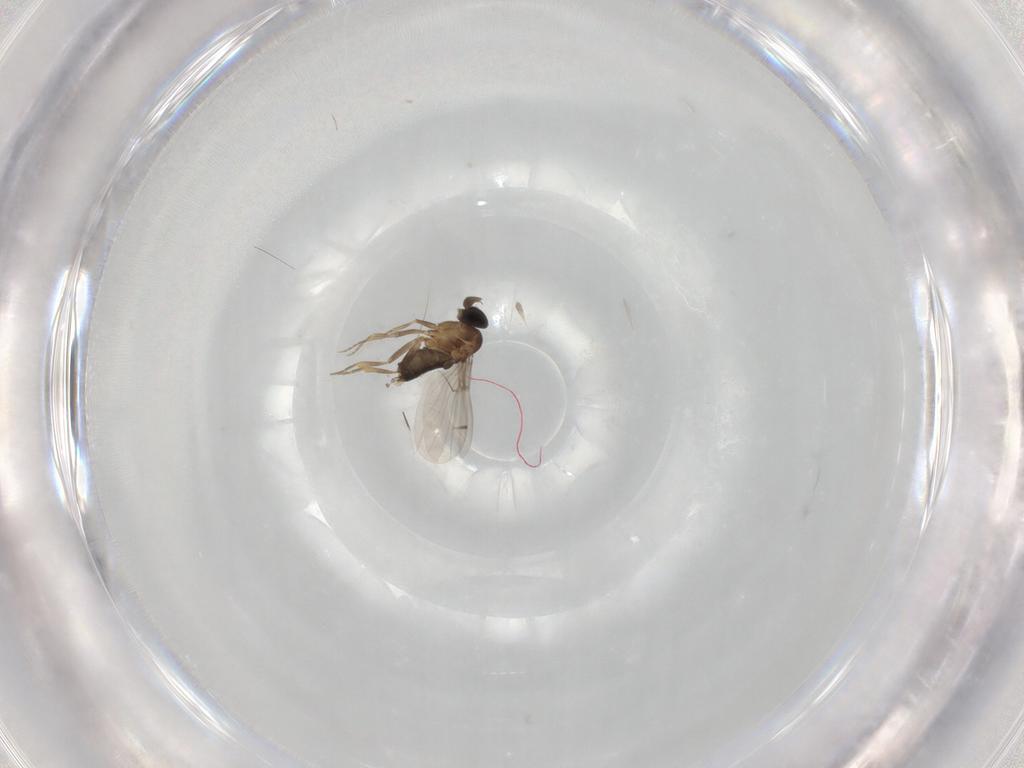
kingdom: Animalia
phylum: Arthropoda
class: Insecta
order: Diptera
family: Phoridae
